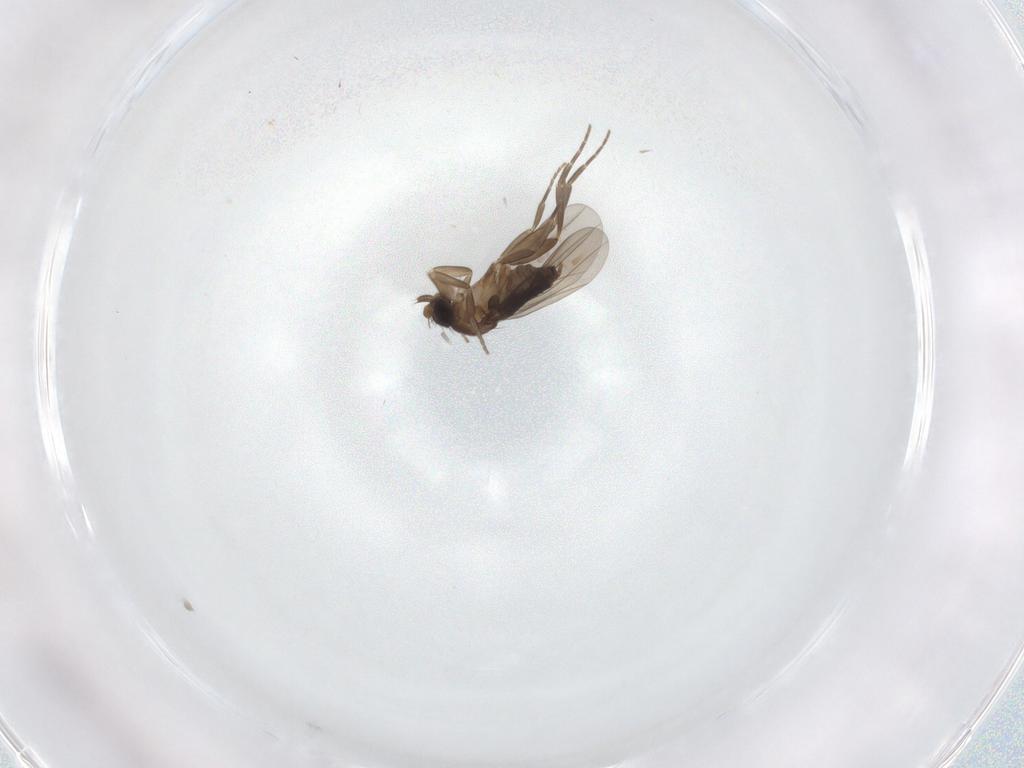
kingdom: Animalia
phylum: Arthropoda
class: Insecta
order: Diptera
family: Phoridae
